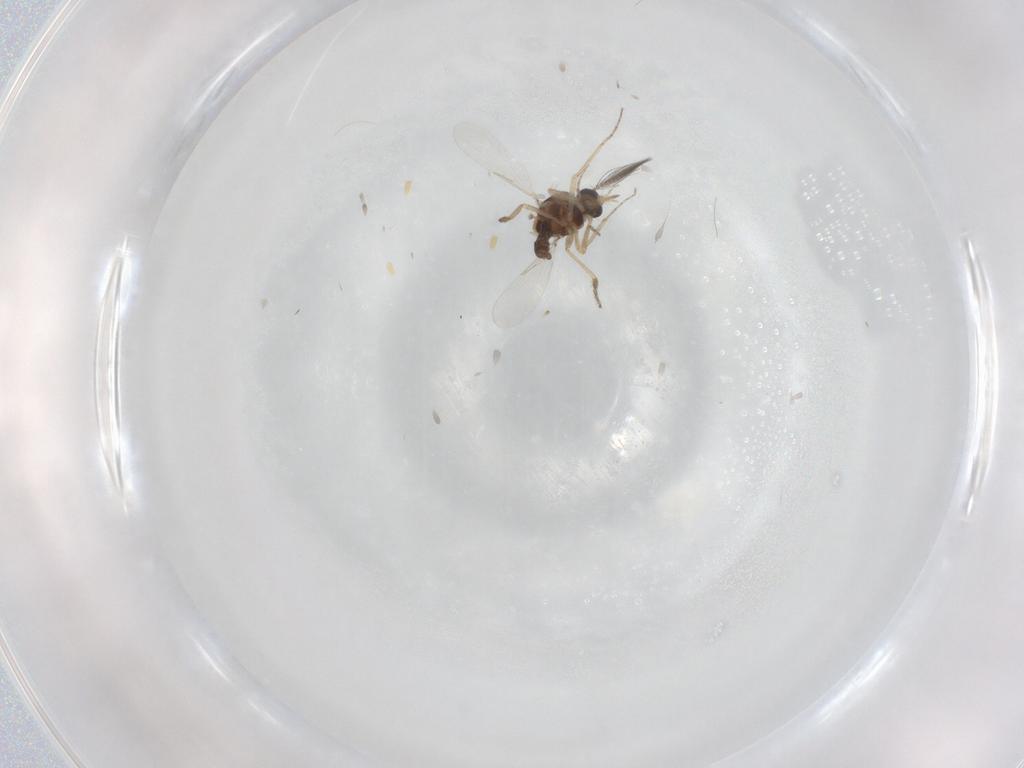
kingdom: Animalia
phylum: Arthropoda
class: Insecta
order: Diptera
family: Ceratopogonidae
